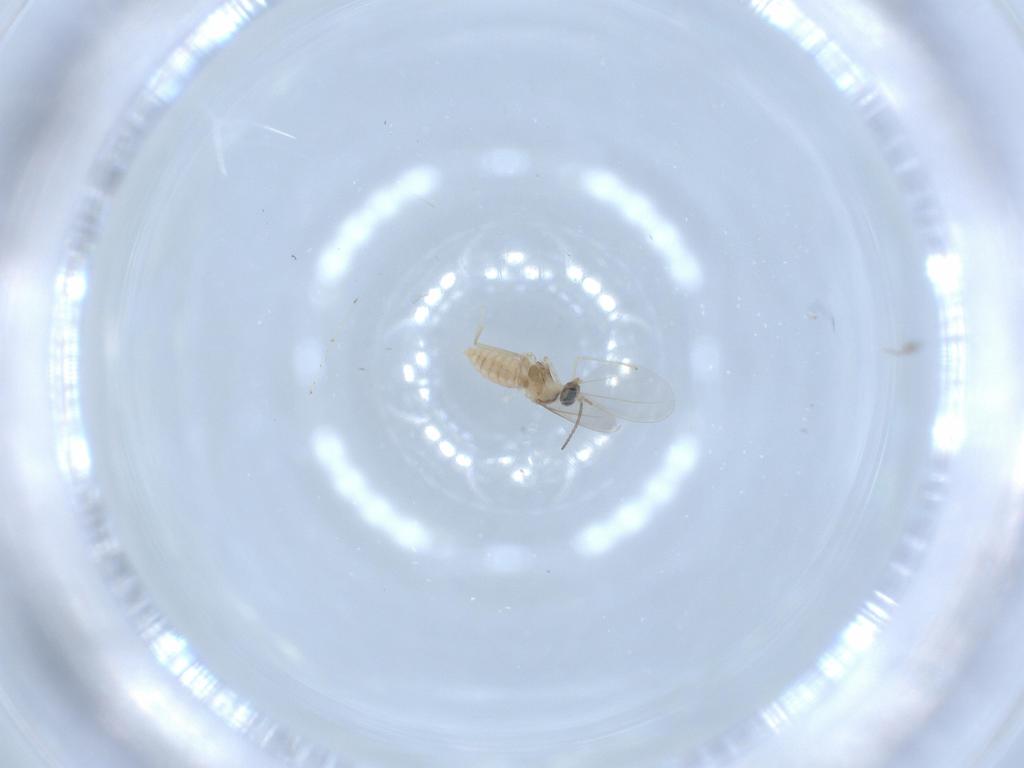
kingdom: Animalia
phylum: Arthropoda
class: Insecta
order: Diptera
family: Cecidomyiidae
